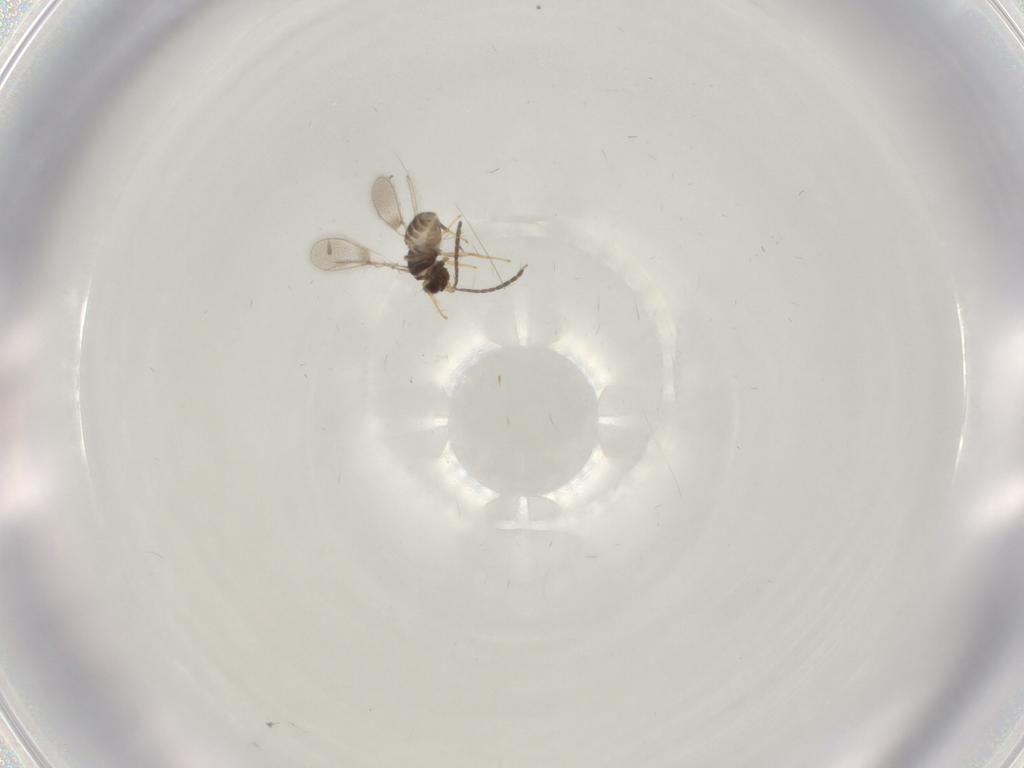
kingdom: Animalia
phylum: Arthropoda
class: Insecta
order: Hymenoptera
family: Mymaridae
